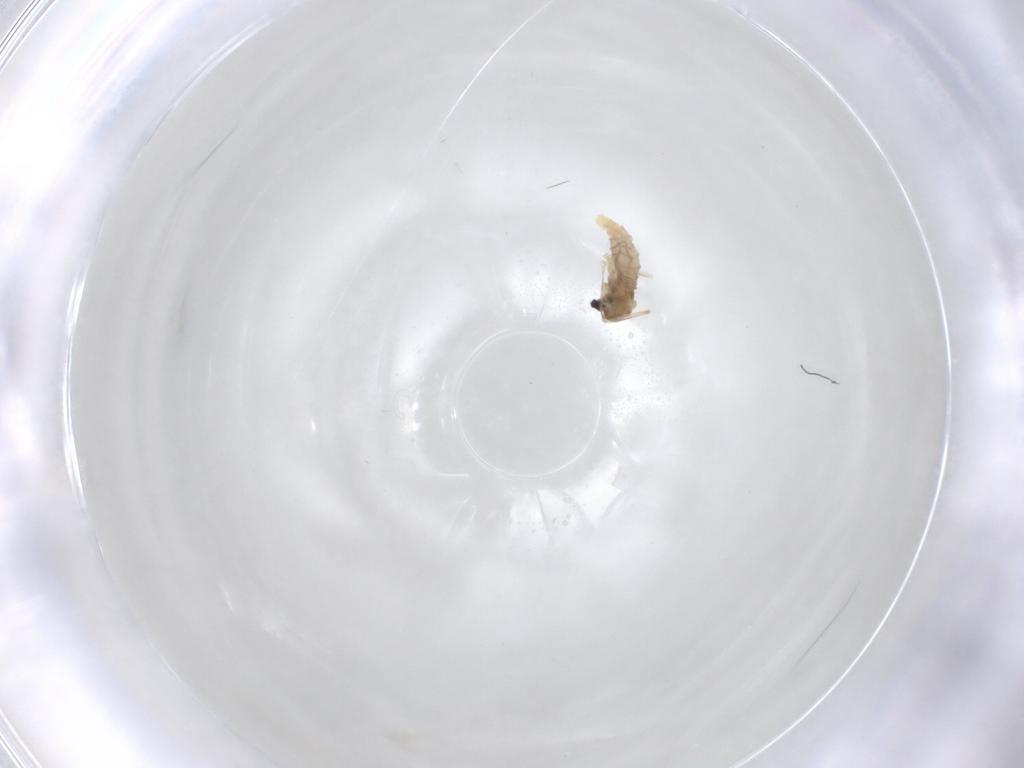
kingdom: Animalia
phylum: Arthropoda
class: Insecta
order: Diptera
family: Cecidomyiidae
